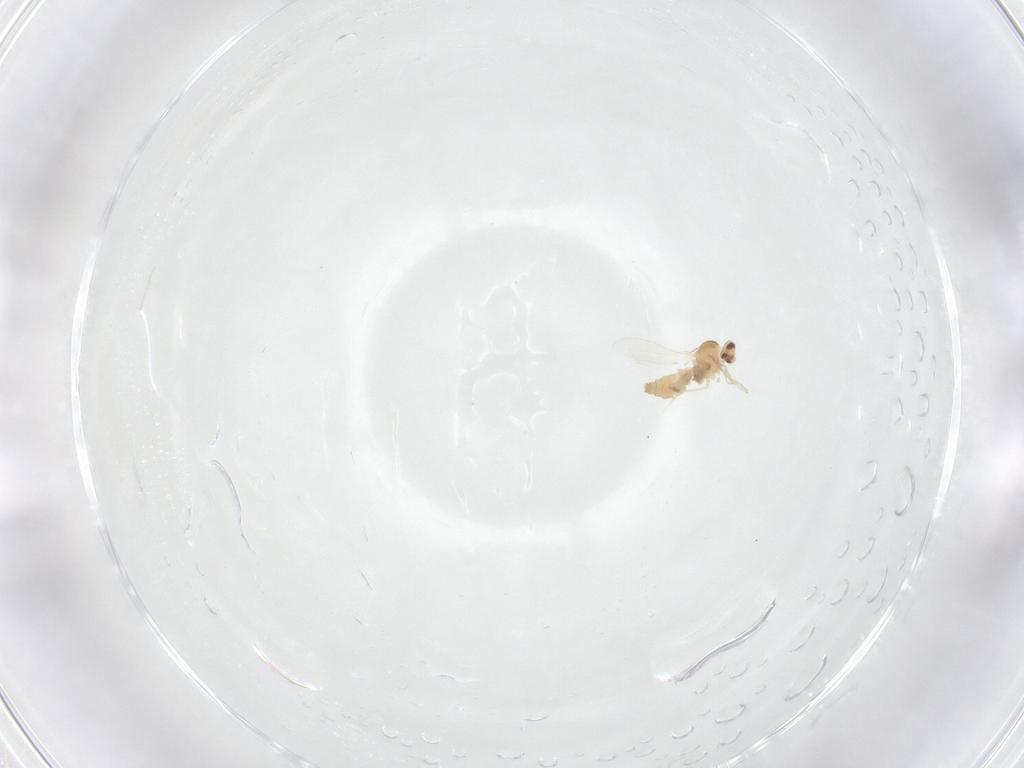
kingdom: Animalia
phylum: Arthropoda
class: Insecta
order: Diptera
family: Cecidomyiidae
